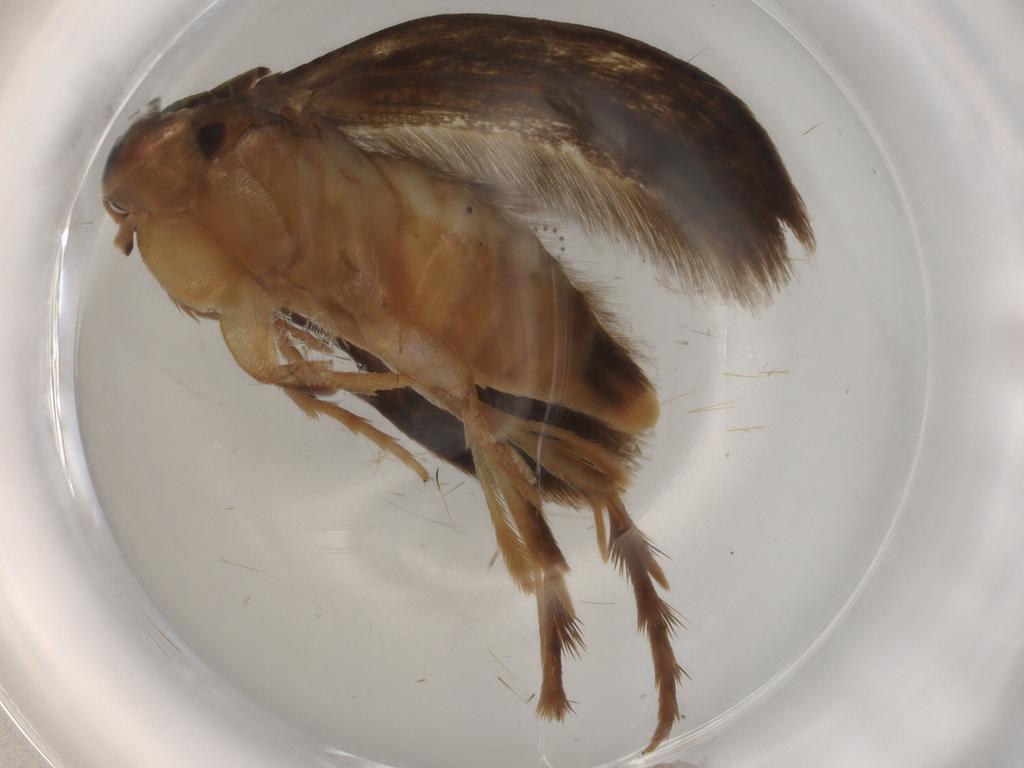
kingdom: Animalia
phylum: Arthropoda
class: Insecta
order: Lepidoptera
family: Tineidae
